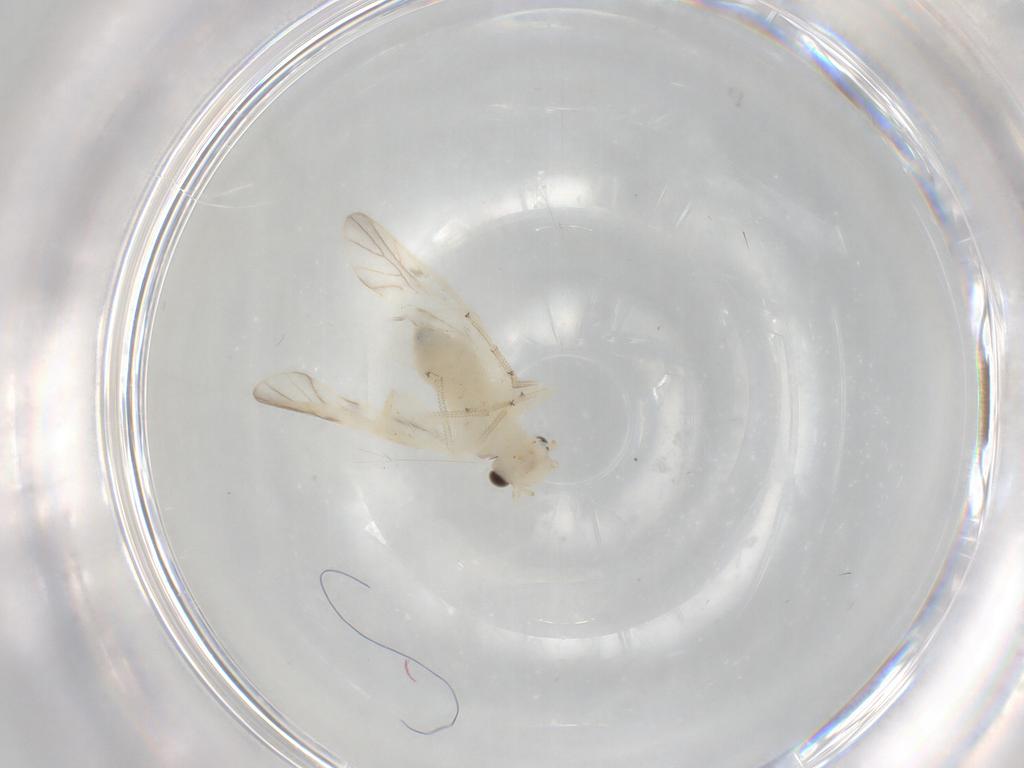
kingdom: Animalia
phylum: Arthropoda
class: Insecta
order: Psocodea
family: Caeciliusidae
